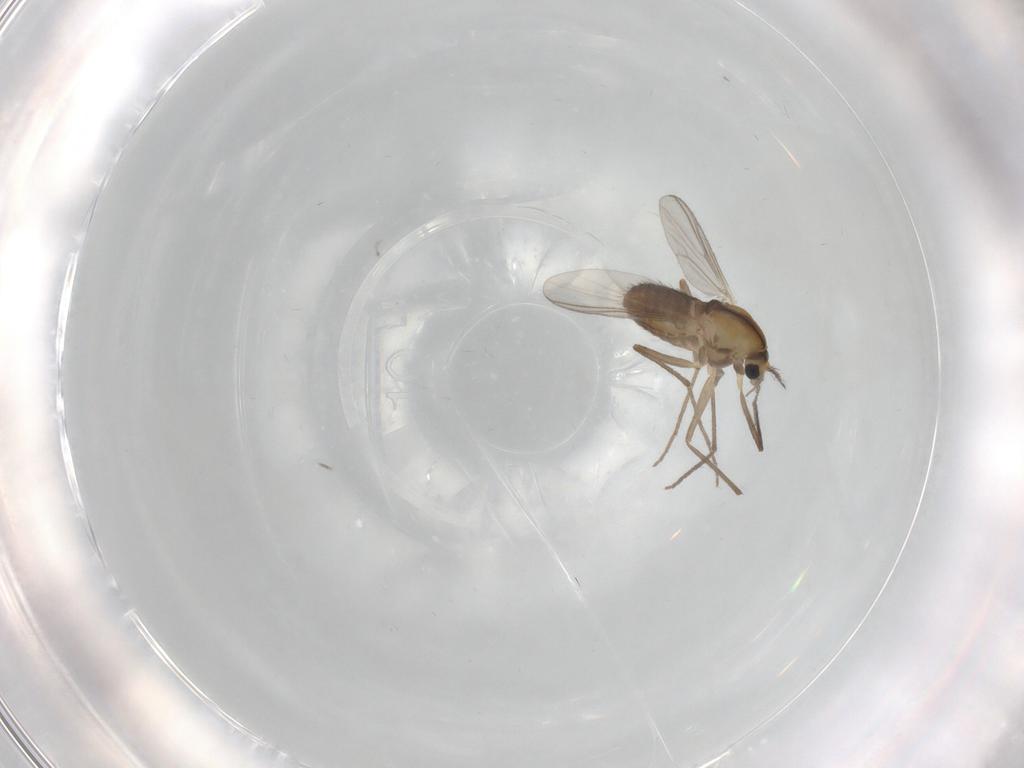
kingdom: Animalia
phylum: Arthropoda
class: Insecta
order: Diptera
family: Chironomidae
